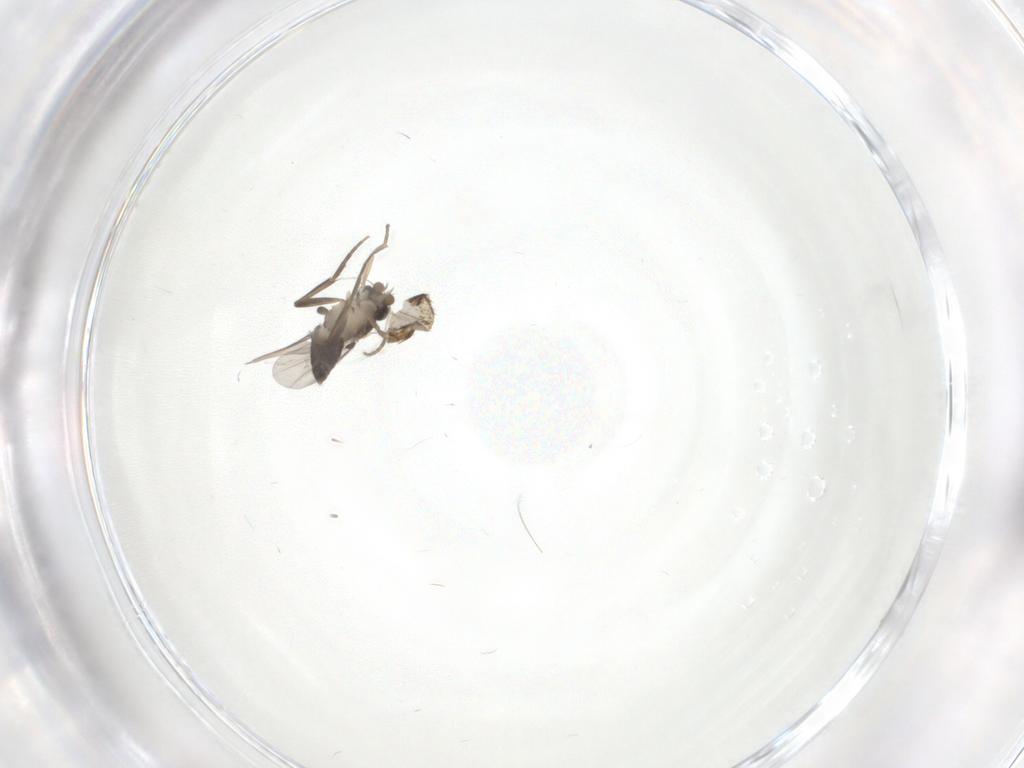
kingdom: Animalia
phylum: Arthropoda
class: Insecta
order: Diptera
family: Phoridae
